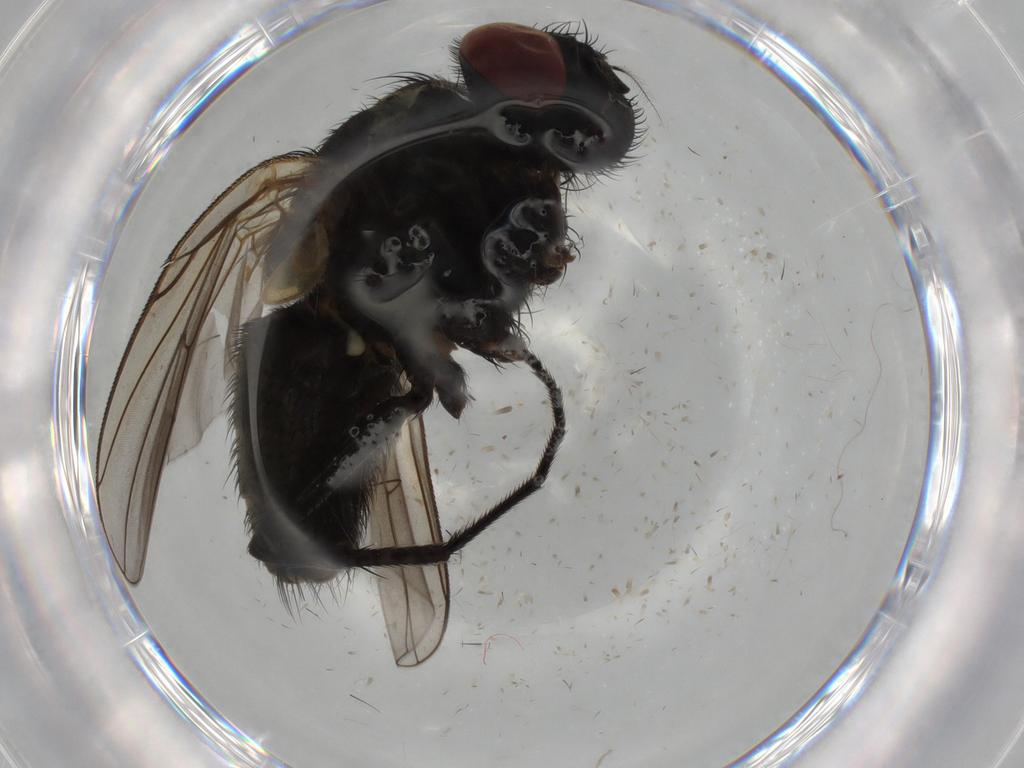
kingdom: Animalia
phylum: Arthropoda
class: Insecta
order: Diptera
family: Muscidae
